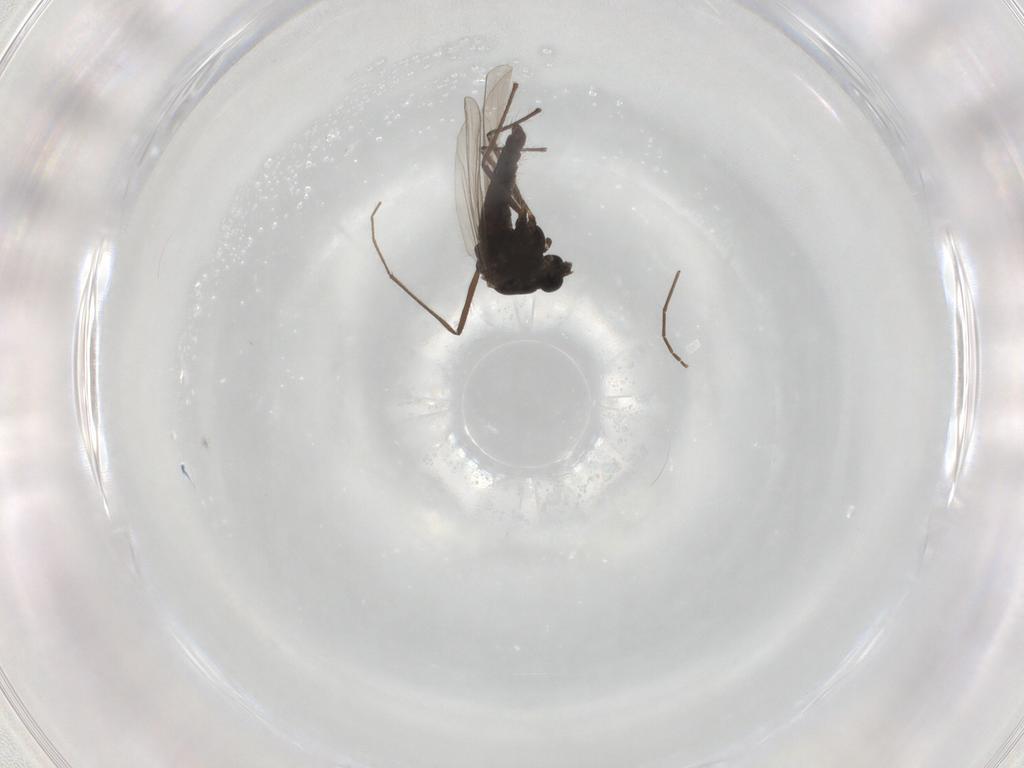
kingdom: Animalia
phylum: Arthropoda
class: Insecta
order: Diptera
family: Chironomidae
